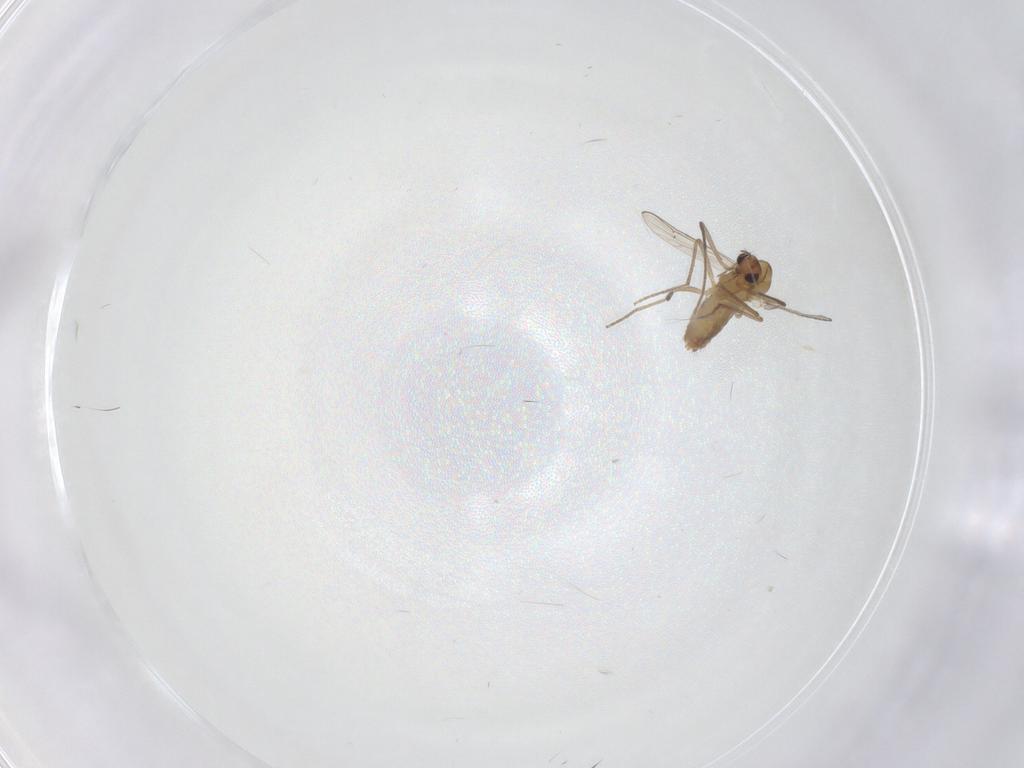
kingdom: Animalia
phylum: Arthropoda
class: Insecta
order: Diptera
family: Chironomidae
